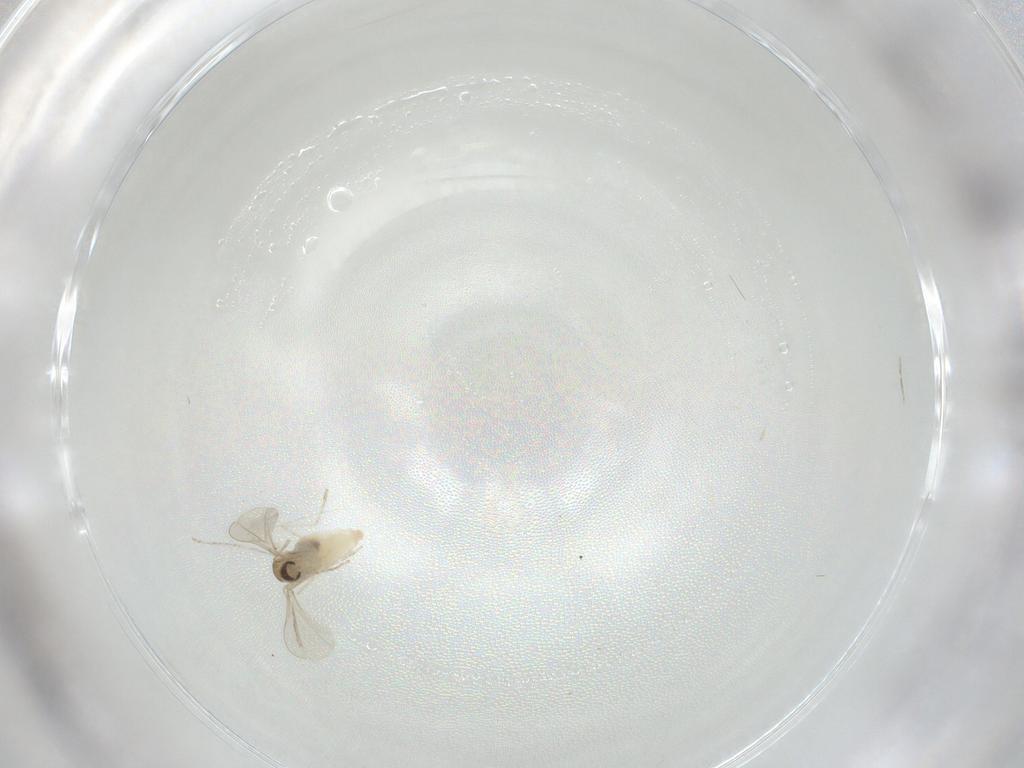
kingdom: Animalia
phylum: Arthropoda
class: Insecta
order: Diptera
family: Cecidomyiidae
